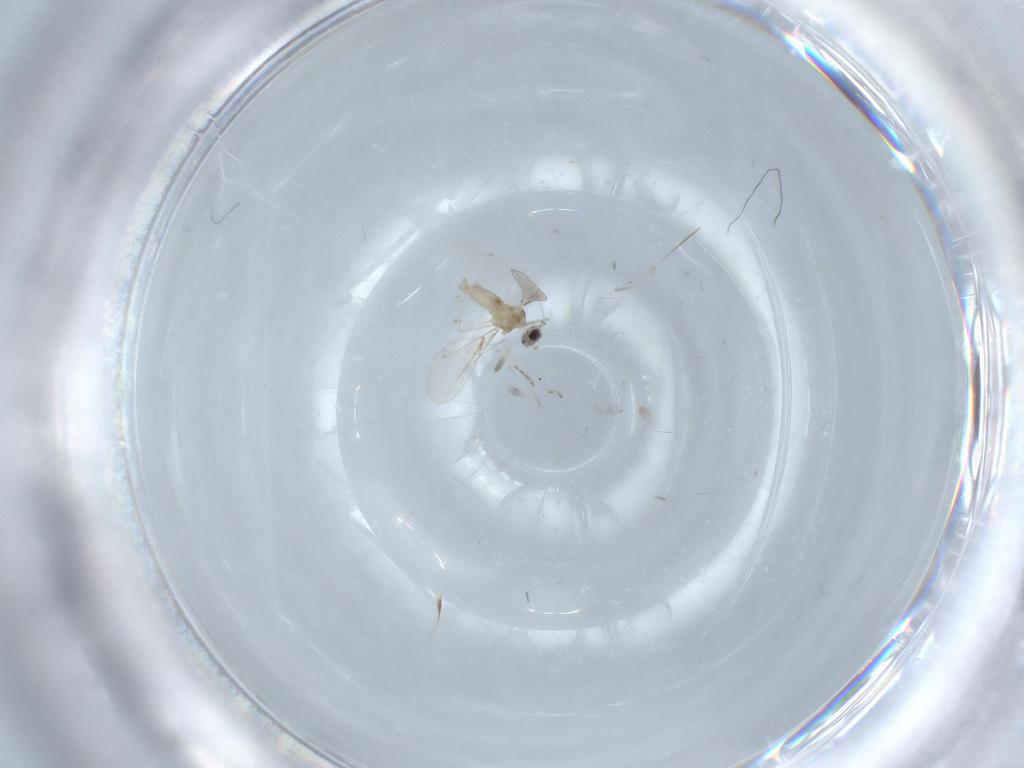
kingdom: Animalia
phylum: Arthropoda
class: Insecta
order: Diptera
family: Cecidomyiidae
